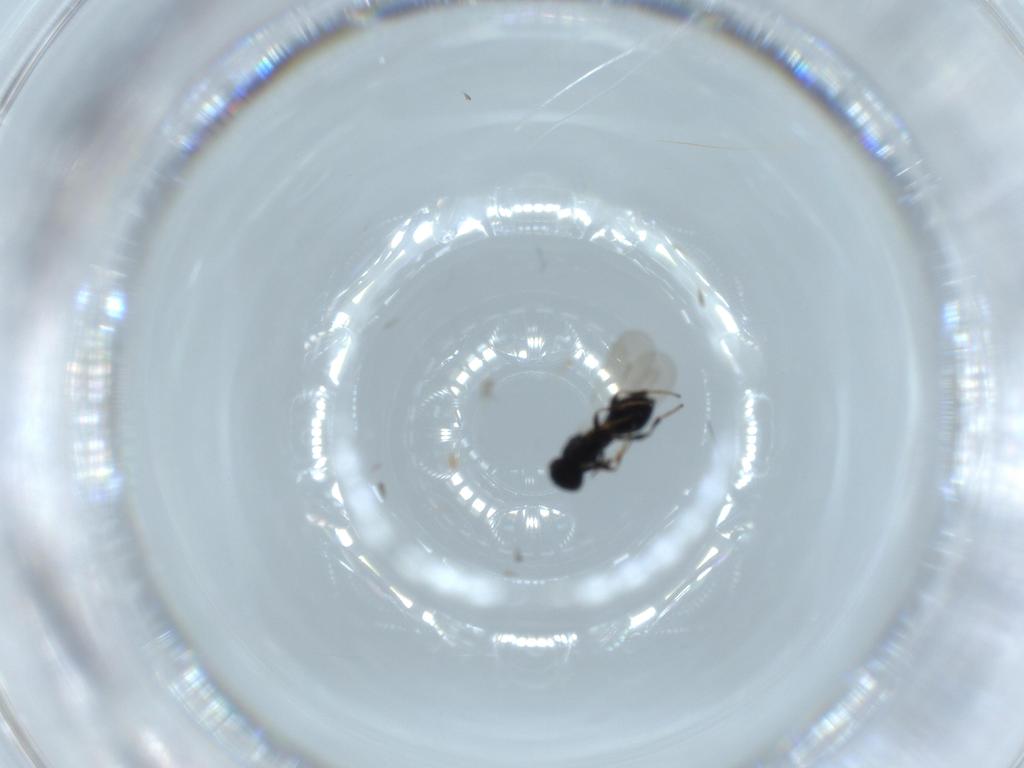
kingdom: Animalia
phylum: Arthropoda
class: Insecta
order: Hymenoptera
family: Platygastridae
